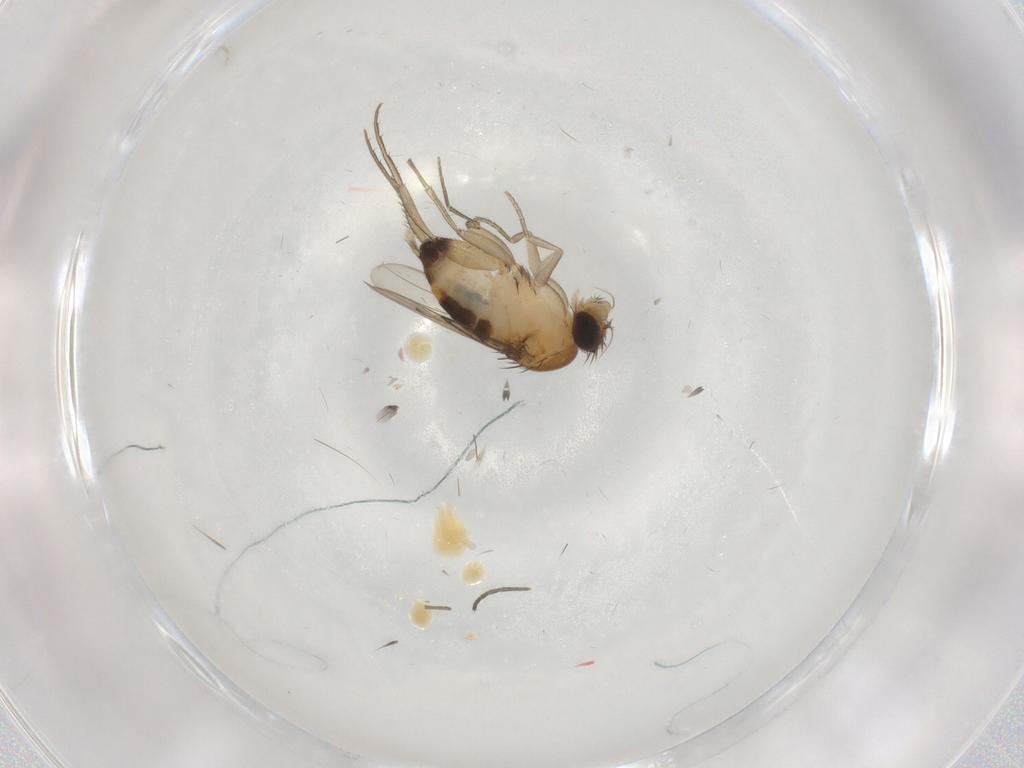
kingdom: Animalia
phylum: Arthropoda
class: Insecta
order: Diptera
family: Phoridae
